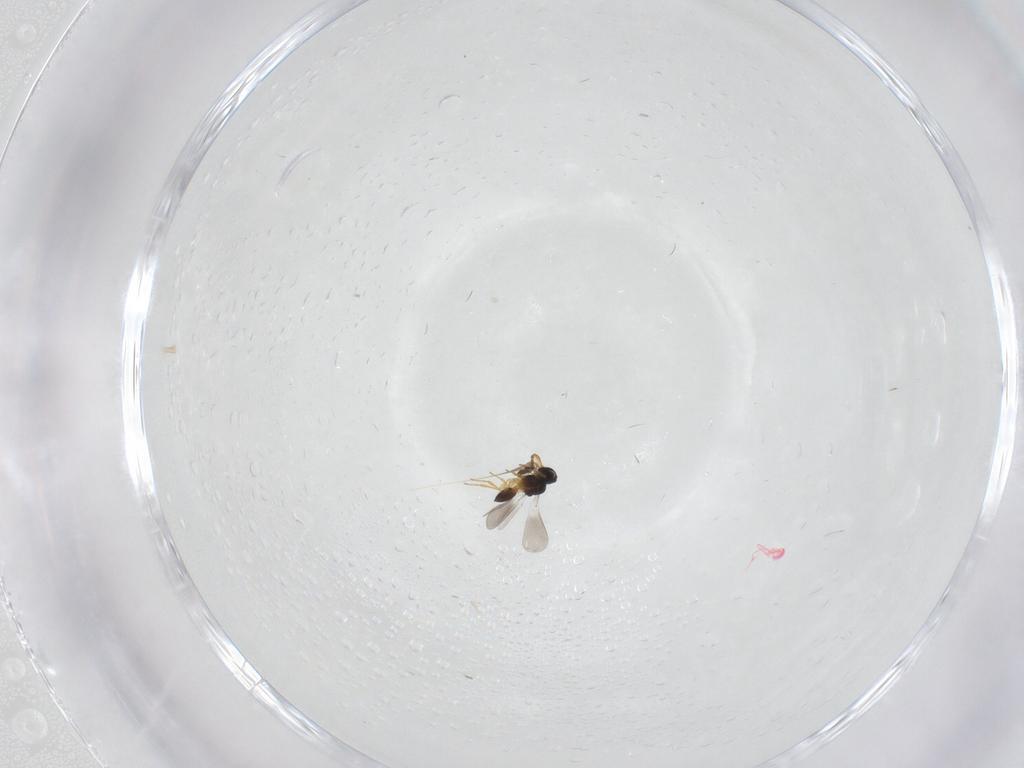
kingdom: Animalia
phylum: Arthropoda
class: Insecta
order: Hymenoptera
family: Platygastridae
